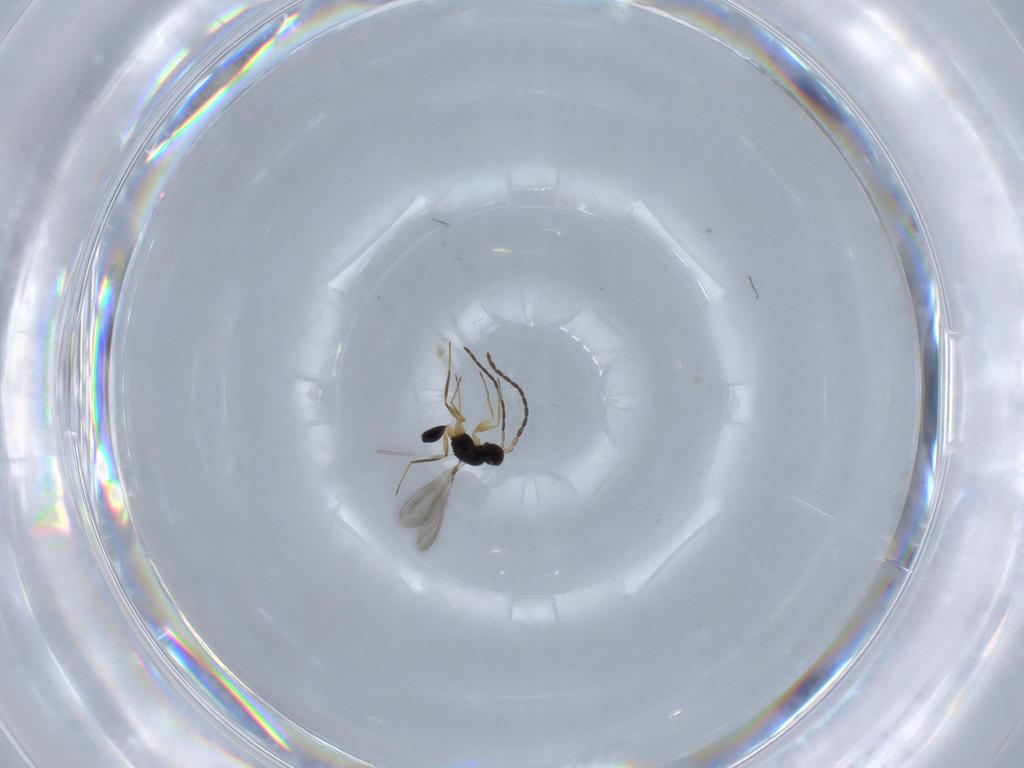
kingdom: Animalia
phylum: Arthropoda
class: Insecta
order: Hymenoptera
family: Mymaridae
